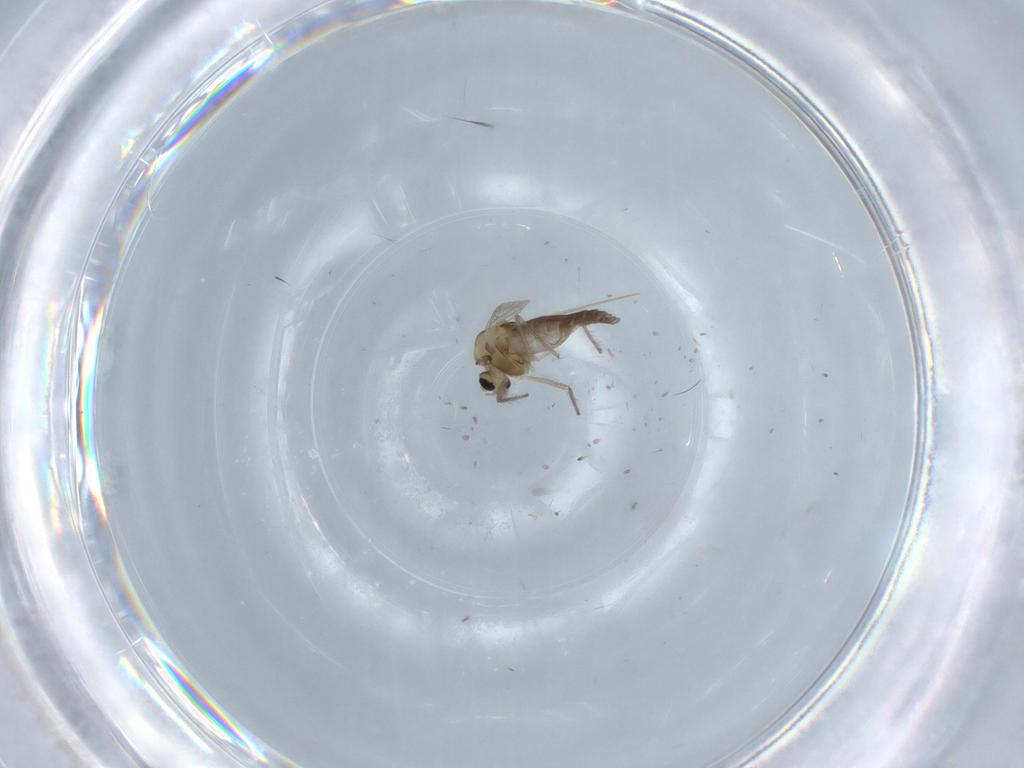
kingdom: Animalia
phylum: Arthropoda
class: Insecta
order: Diptera
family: Chironomidae
